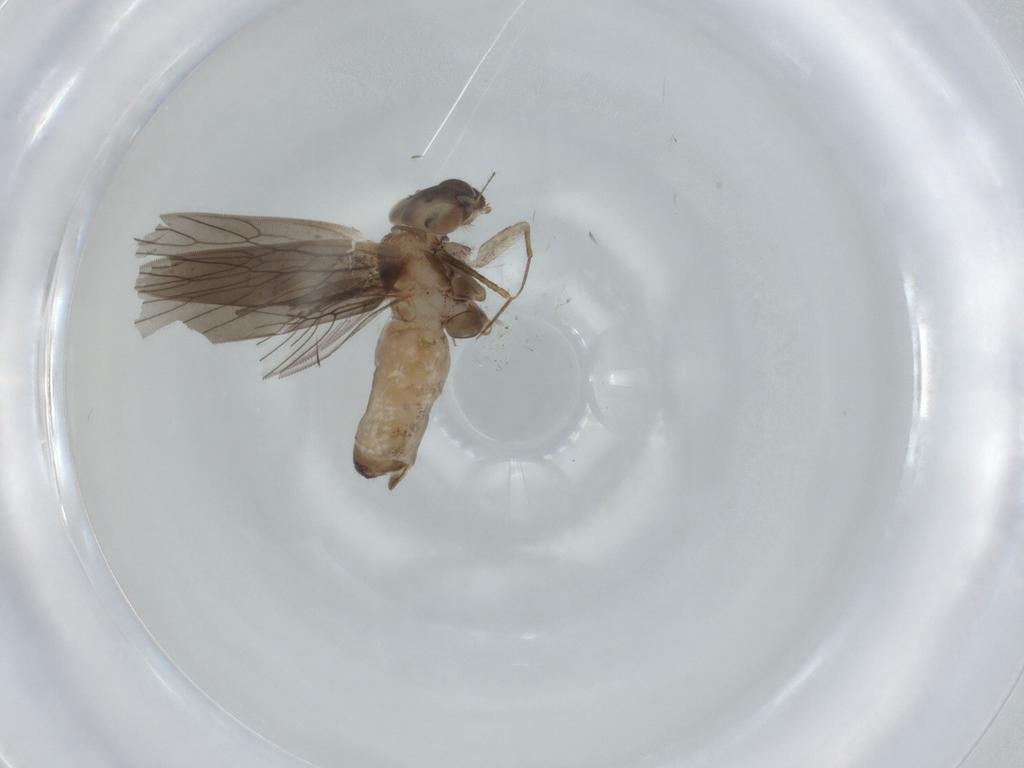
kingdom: Animalia
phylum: Arthropoda
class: Insecta
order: Psocodea
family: Lepidopsocidae
